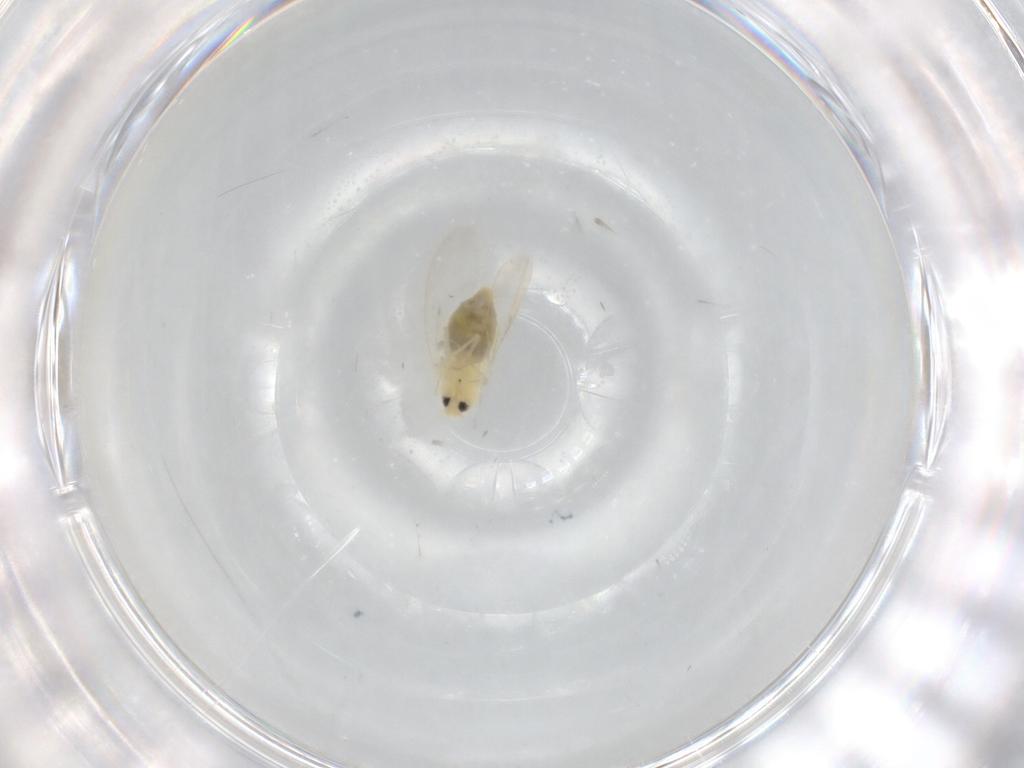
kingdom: Animalia
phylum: Arthropoda
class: Insecta
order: Hemiptera
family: Aleyrodidae
